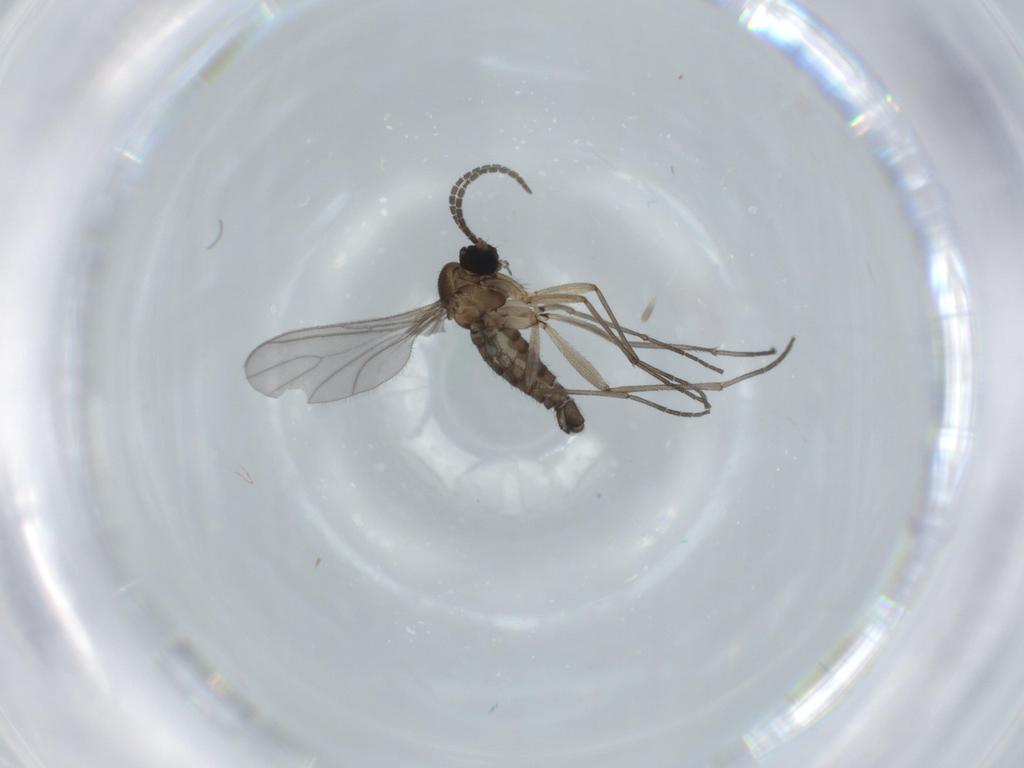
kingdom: Animalia
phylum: Arthropoda
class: Insecta
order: Diptera
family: Sciaridae
